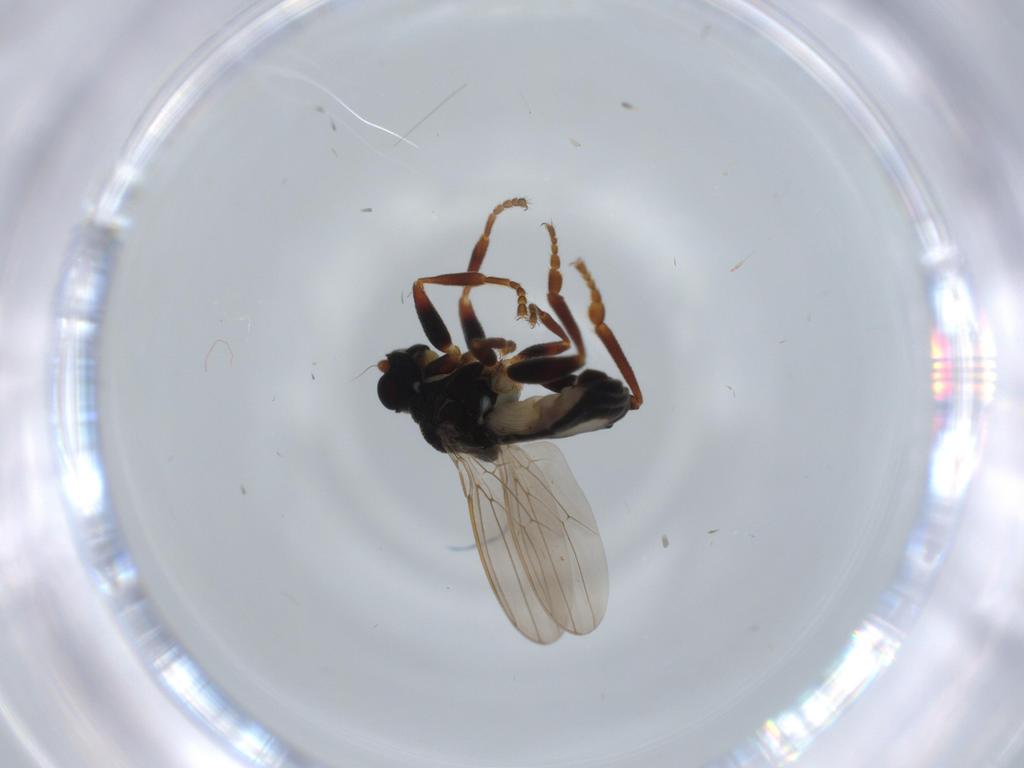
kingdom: Animalia
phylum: Arthropoda
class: Insecta
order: Diptera
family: Sphaeroceridae
